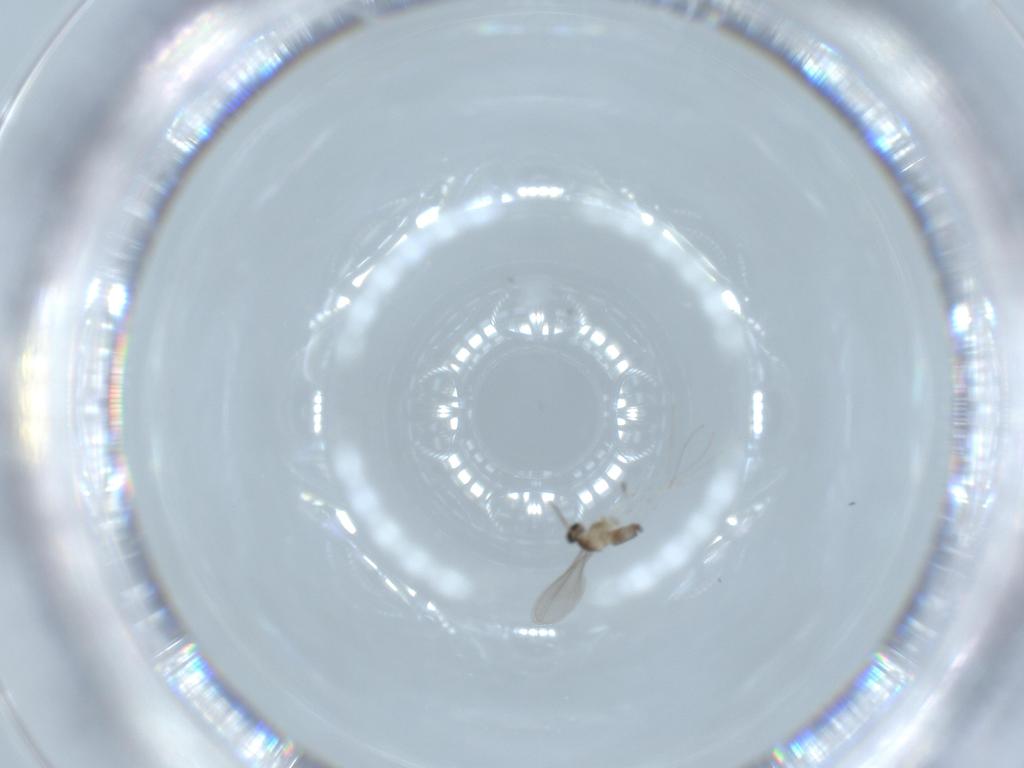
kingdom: Animalia
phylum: Arthropoda
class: Insecta
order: Diptera
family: Cecidomyiidae
